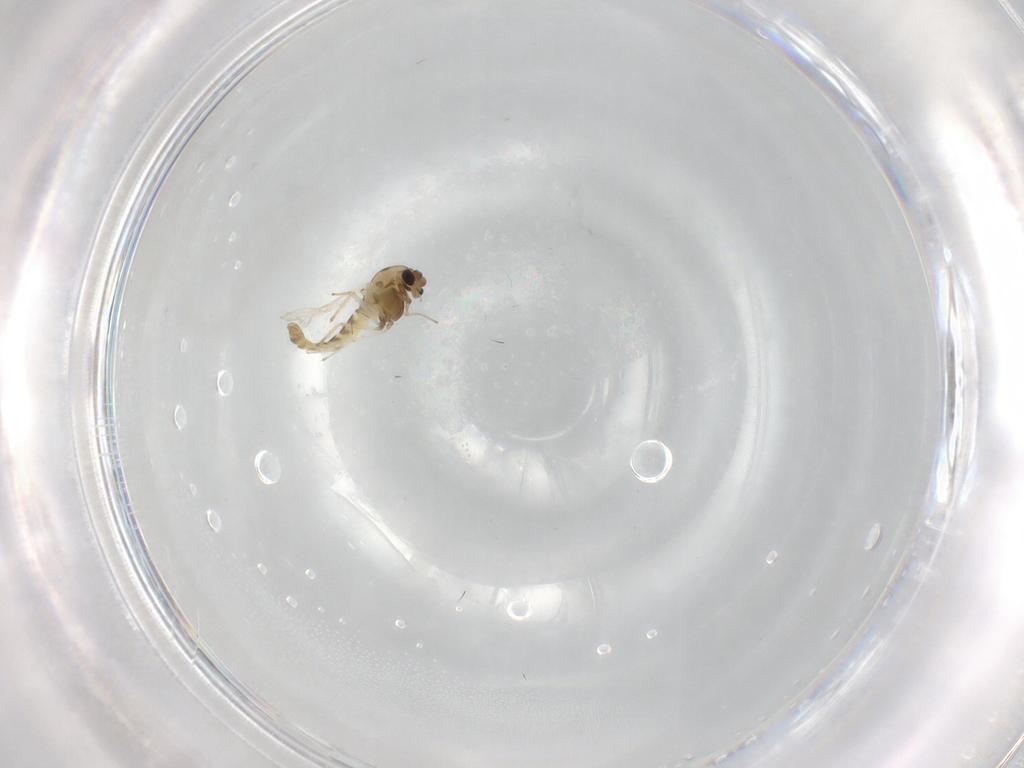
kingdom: Animalia
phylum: Arthropoda
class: Insecta
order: Diptera
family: Chironomidae
